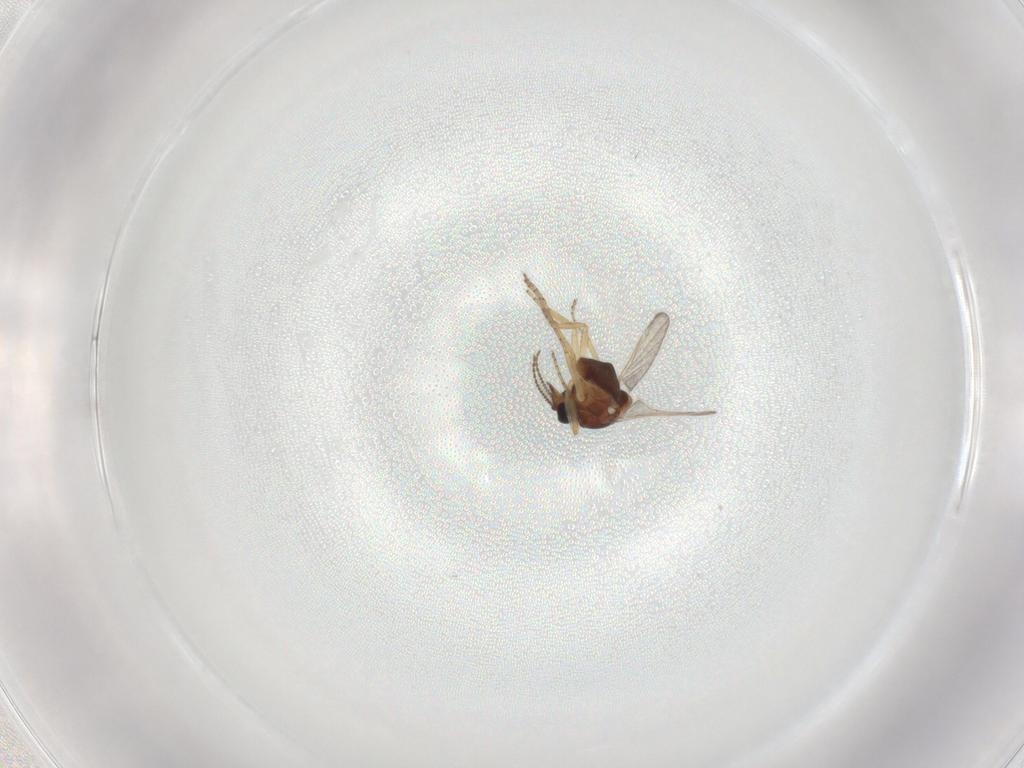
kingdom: Animalia
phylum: Arthropoda
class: Insecta
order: Diptera
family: Ceratopogonidae
